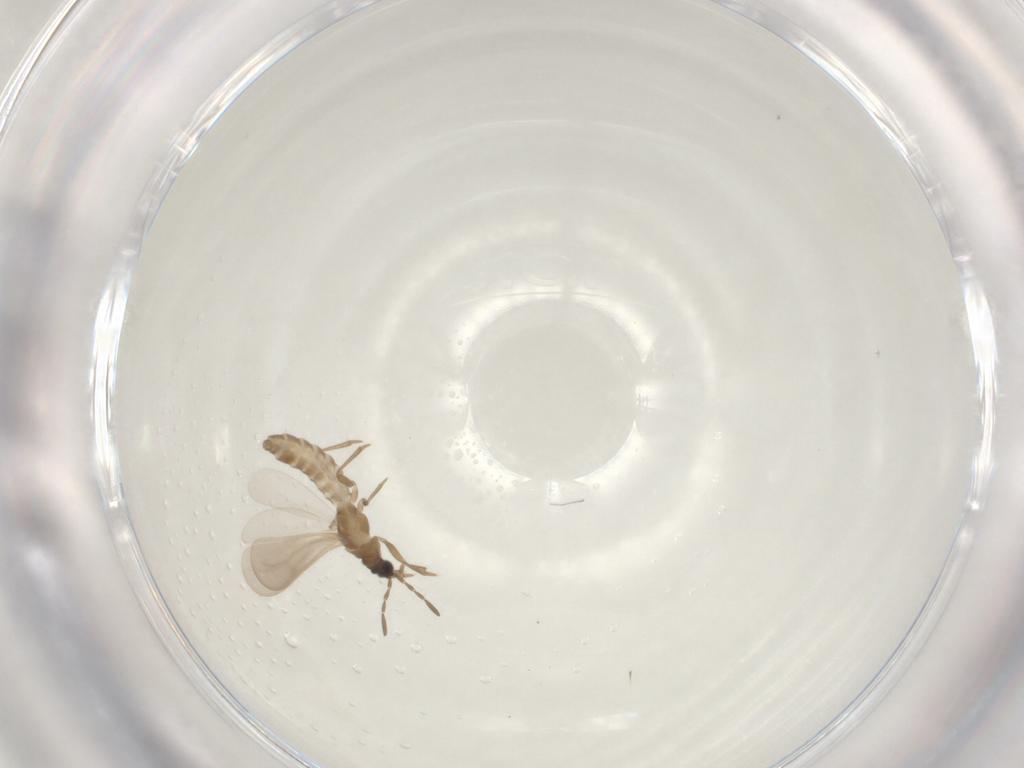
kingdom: Animalia
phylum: Arthropoda
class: Insecta
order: Hemiptera
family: Enicocephalidae
